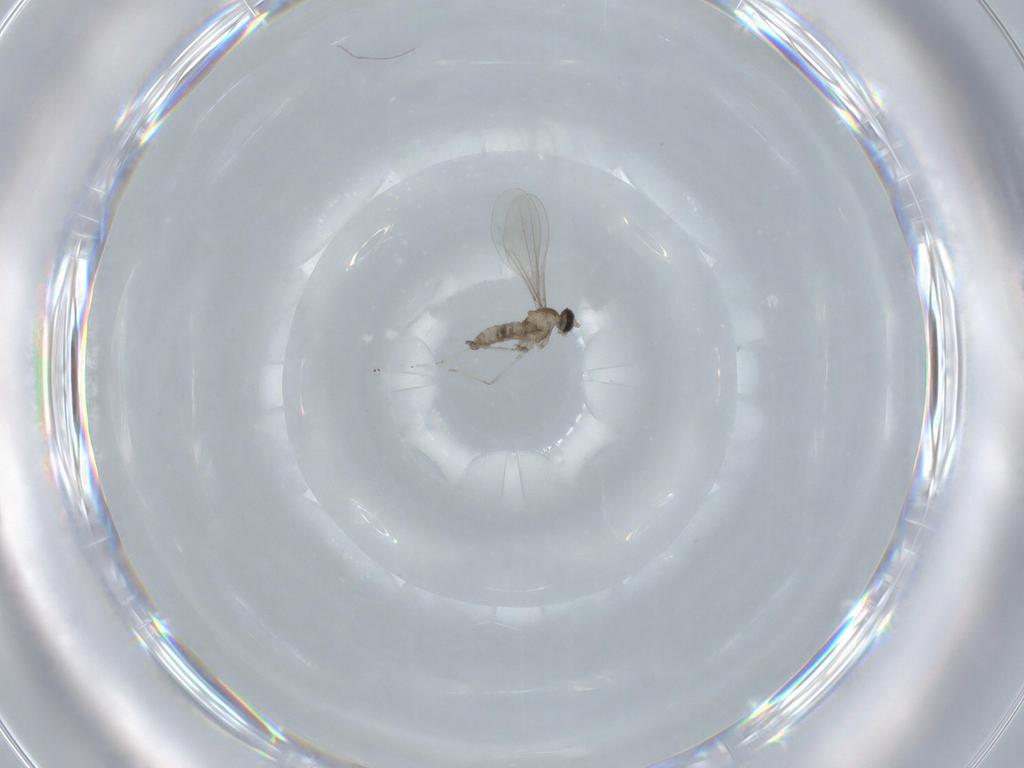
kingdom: Animalia
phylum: Arthropoda
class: Insecta
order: Diptera
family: Cecidomyiidae
